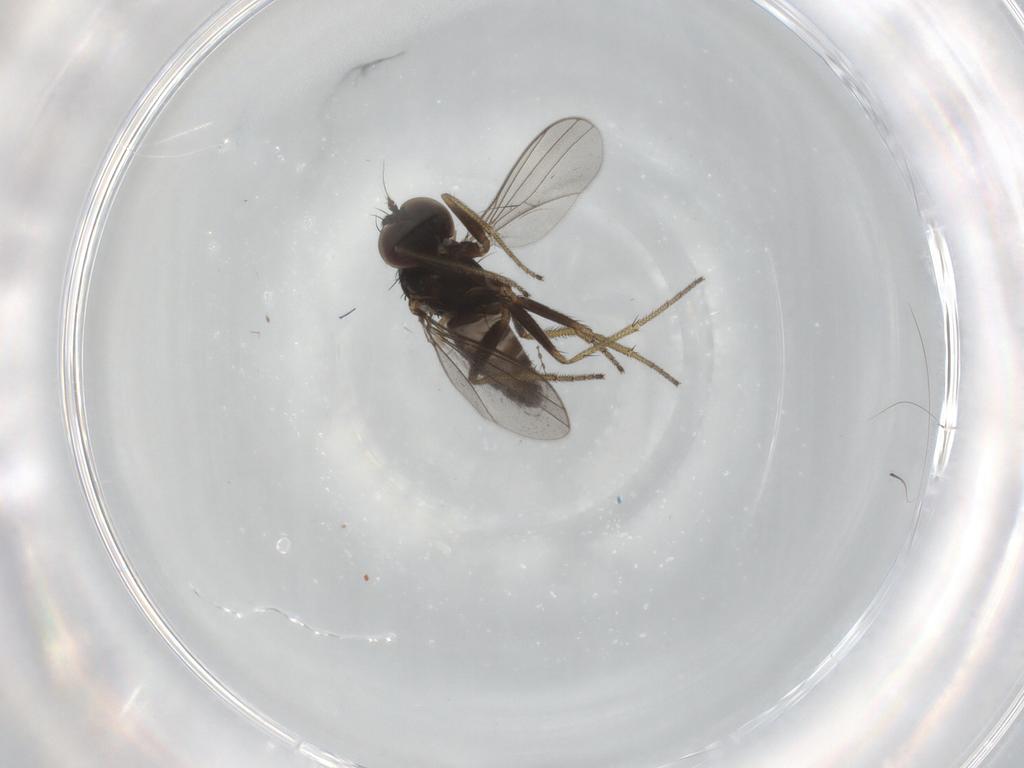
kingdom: Animalia
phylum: Arthropoda
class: Insecta
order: Diptera
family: Cecidomyiidae
